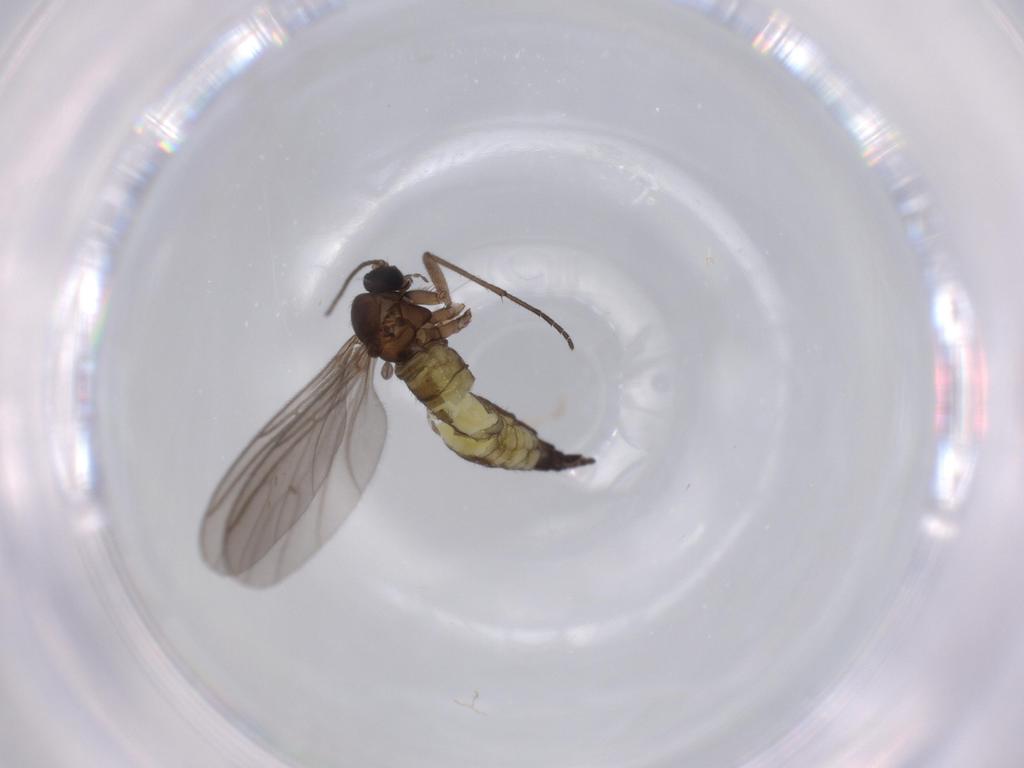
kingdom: Animalia
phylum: Arthropoda
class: Insecta
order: Diptera
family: Sciaridae
